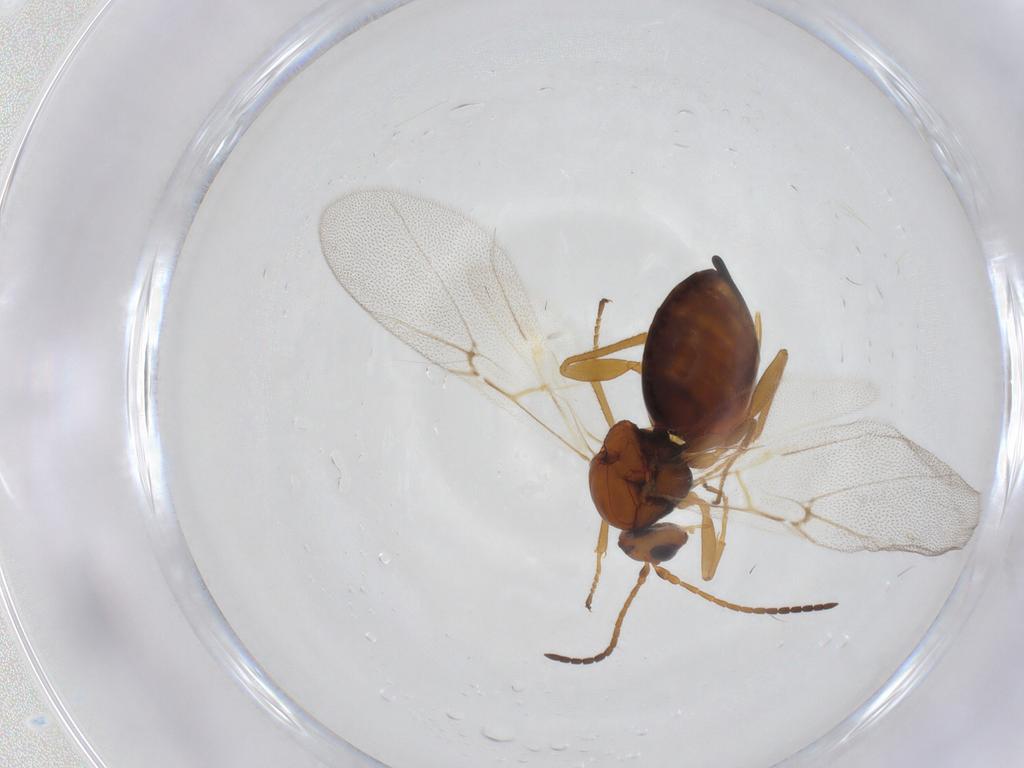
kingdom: Animalia
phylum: Arthropoda
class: Insecta
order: Hymenoptera
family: Cynipidae
